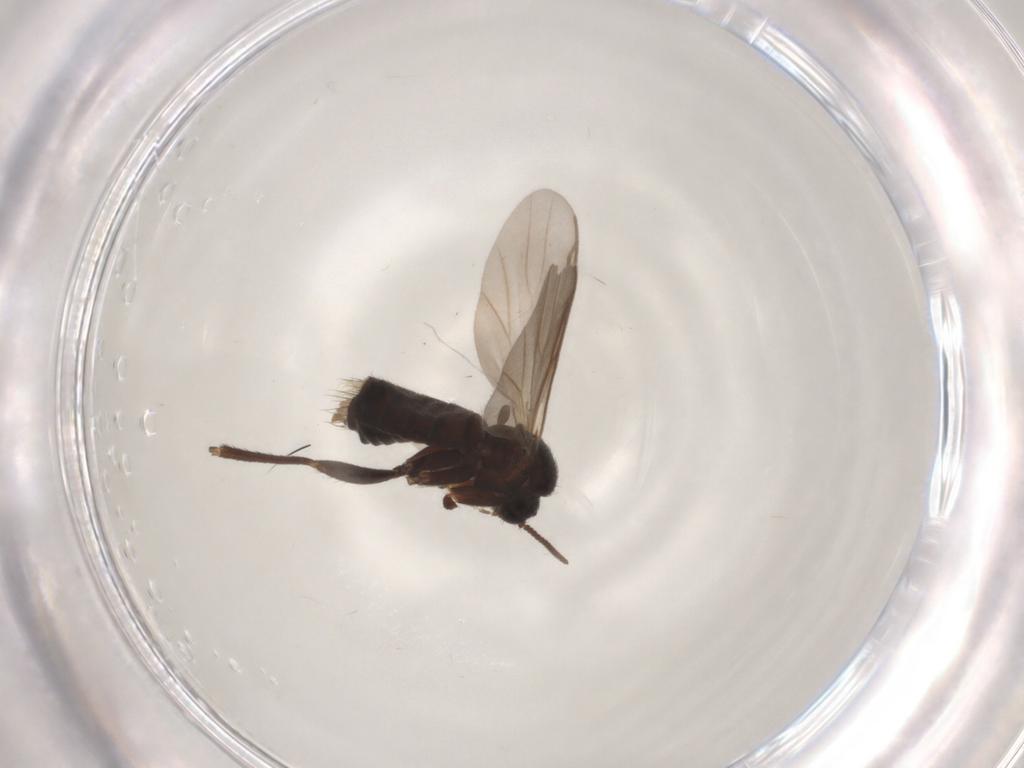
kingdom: Animalia
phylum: Arthropoda
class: Insecta
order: Diptera
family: Mycetophilidae
